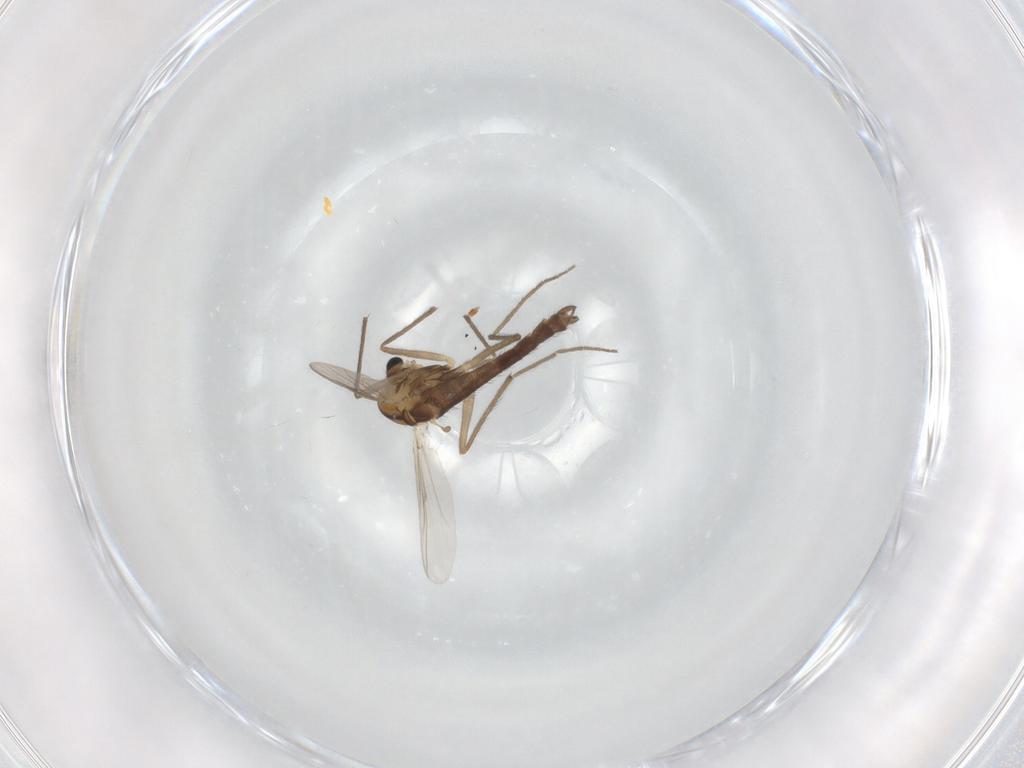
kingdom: Animalia
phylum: Arthropoda
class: Insecta
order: Diptera
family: Chironomidae
